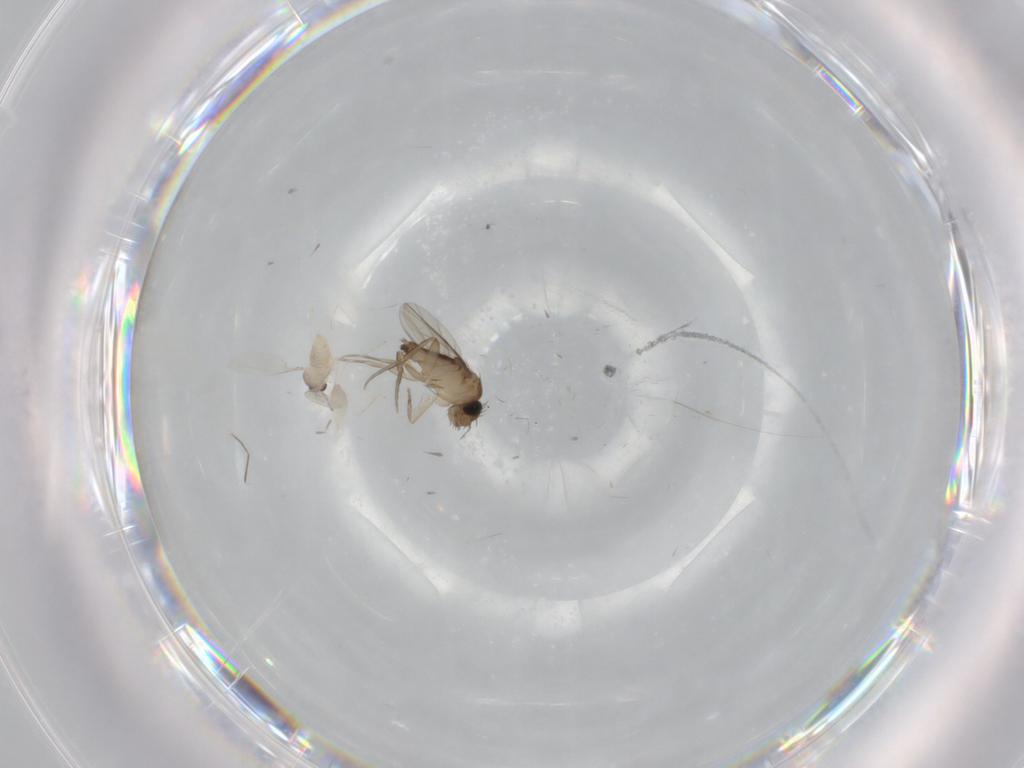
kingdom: Animalia
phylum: Arthropoda
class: Insecta
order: Diptera
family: Cecidomyiidae
